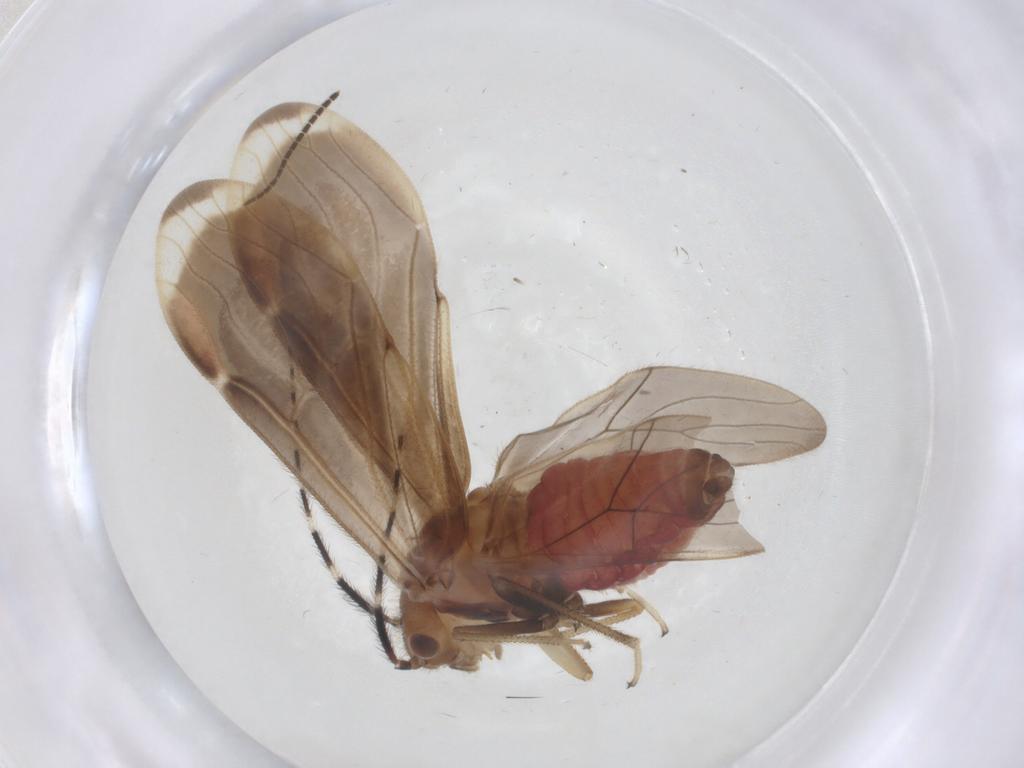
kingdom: Animalia
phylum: Arthropoda
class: Insecta
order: Psocodea
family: Amphipsocidae
